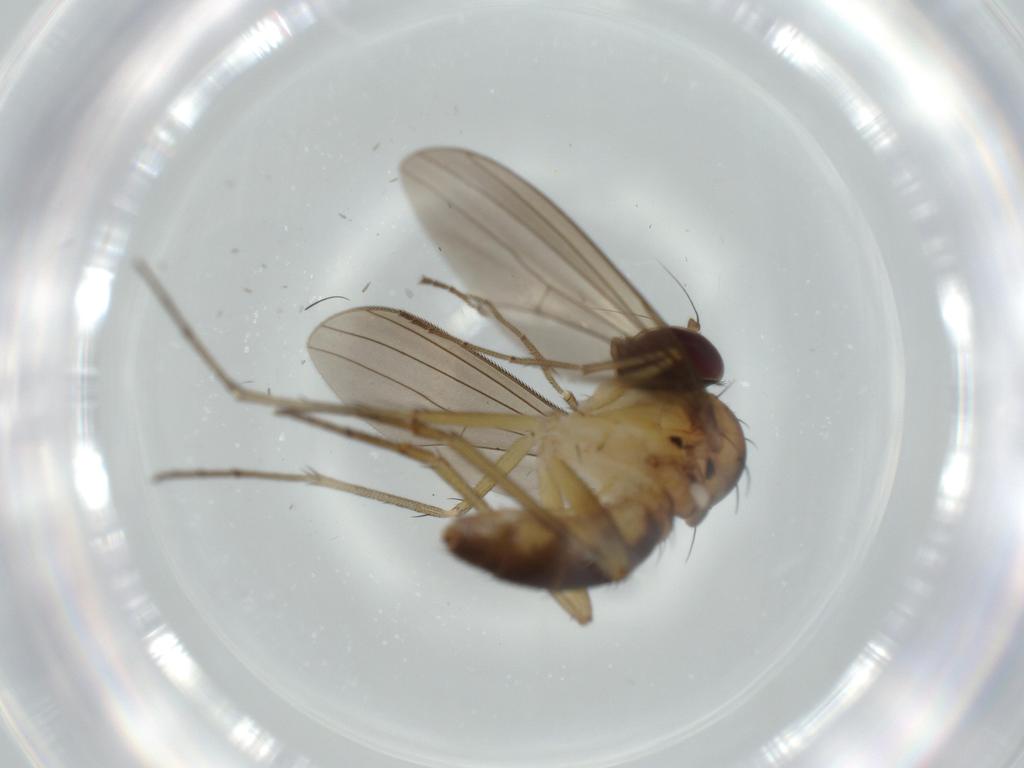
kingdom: Animalia
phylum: Arthropoda
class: Insecta
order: Diptera
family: Dolichopodidae
